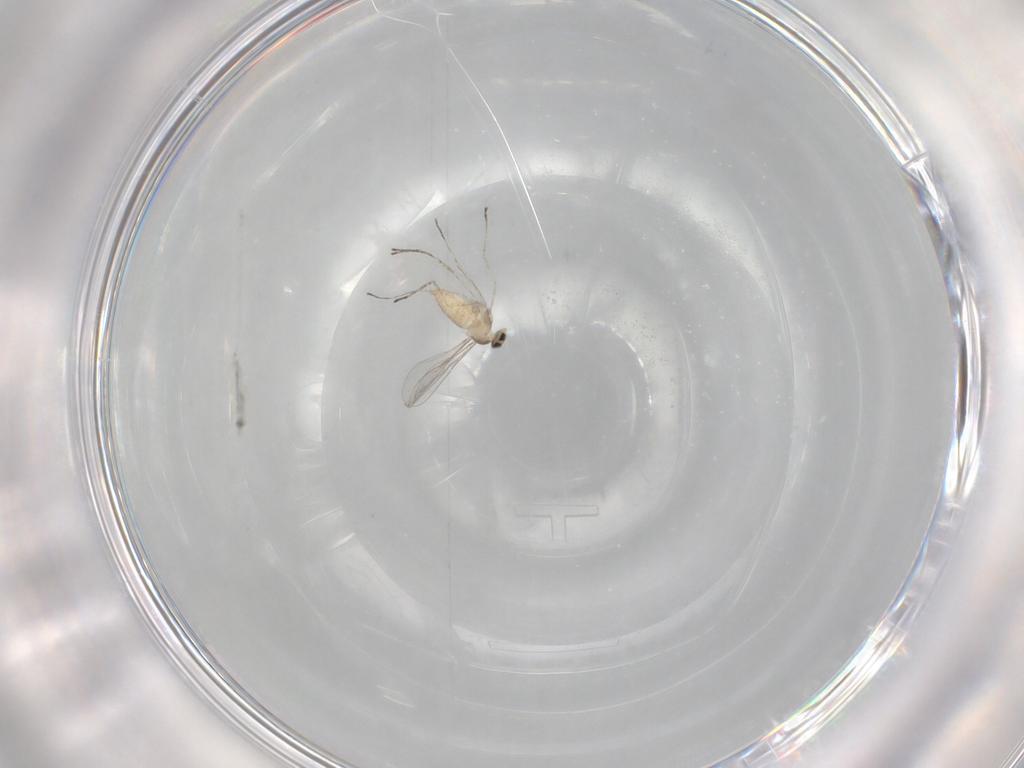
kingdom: Animalia
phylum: Arthropoda
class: Insecta
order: Diptera
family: Cecidomyiidae
